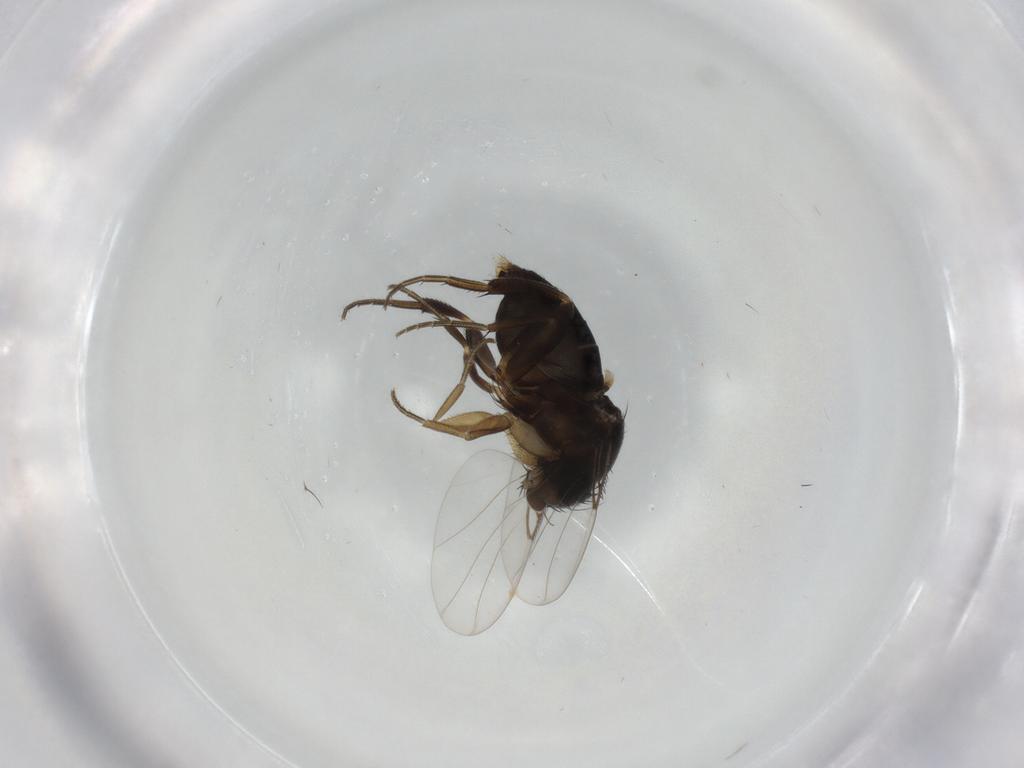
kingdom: Animalia
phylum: Arthropoda
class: Insecta
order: Diptera
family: Phoridae
